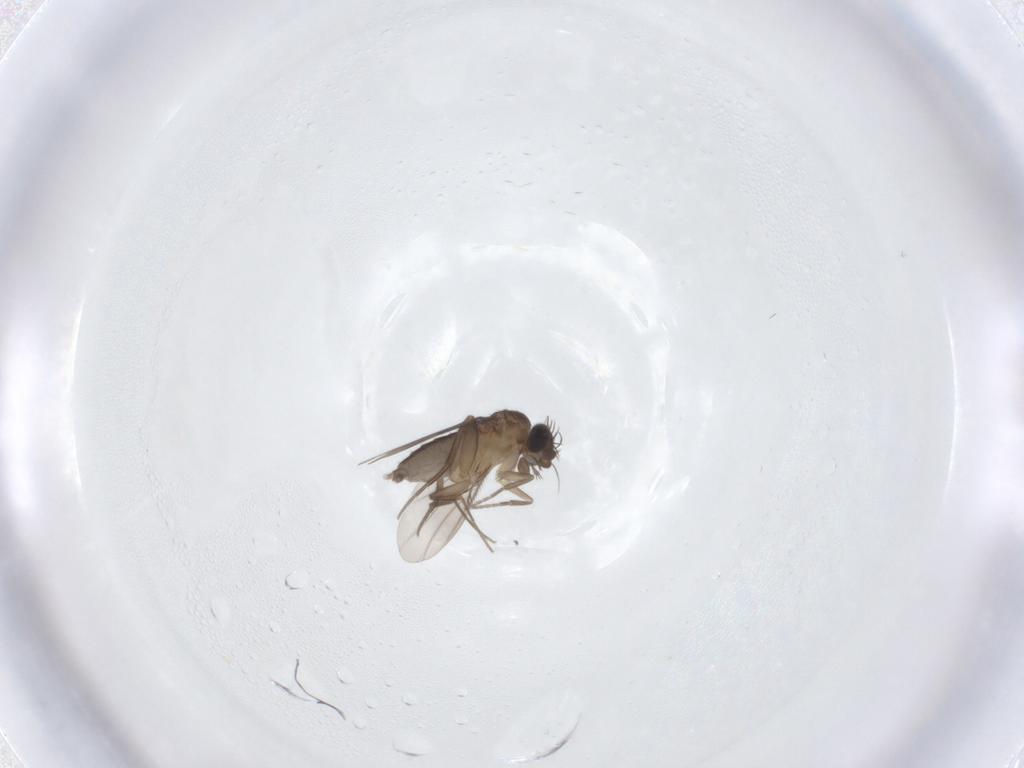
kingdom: Animalia
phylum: Arthropoda
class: Insecta
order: Diptera
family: Phoridae
